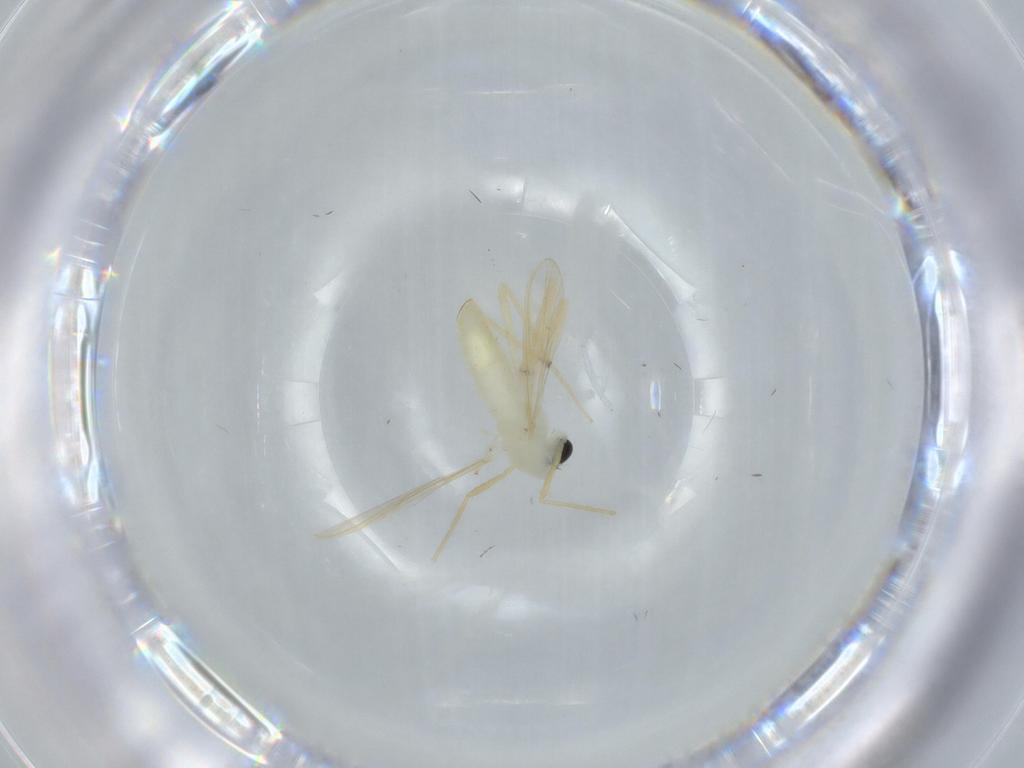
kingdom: Animalia
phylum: Arthropoda
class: Insecta
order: Diptera
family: Chironomidae
